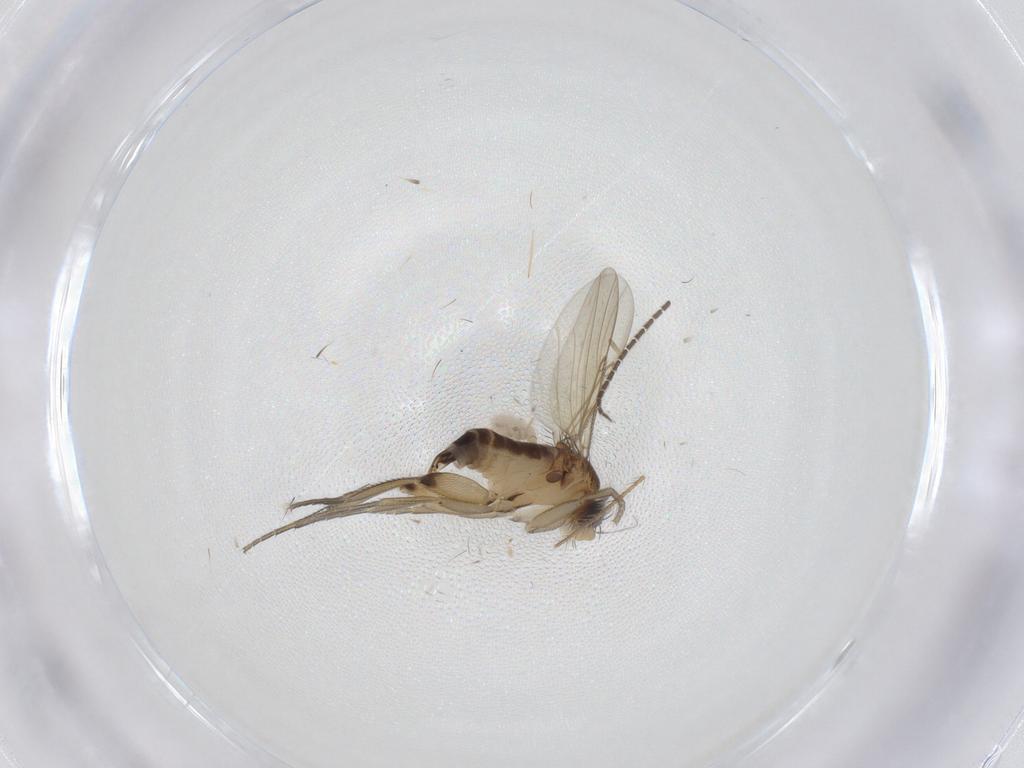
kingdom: Animalia
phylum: Arthropoda
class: Insecta
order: Diptera
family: Phoridae
